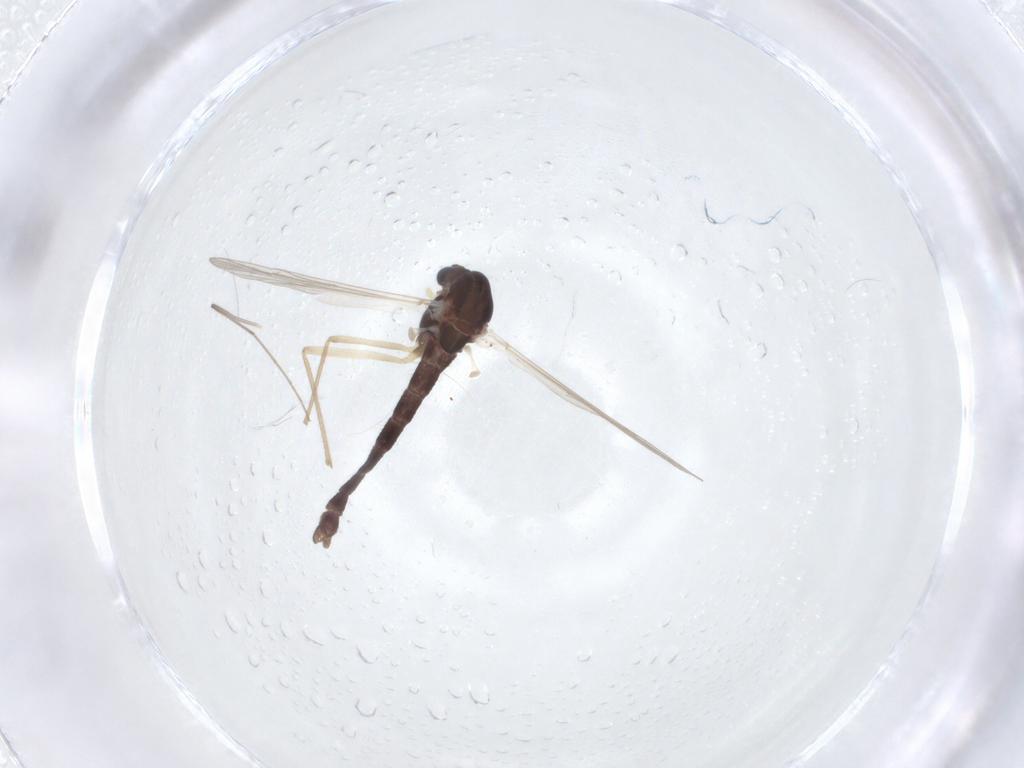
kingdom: Animalia
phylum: Arthropoda
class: Insecta
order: Diptera
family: Chironomidae
